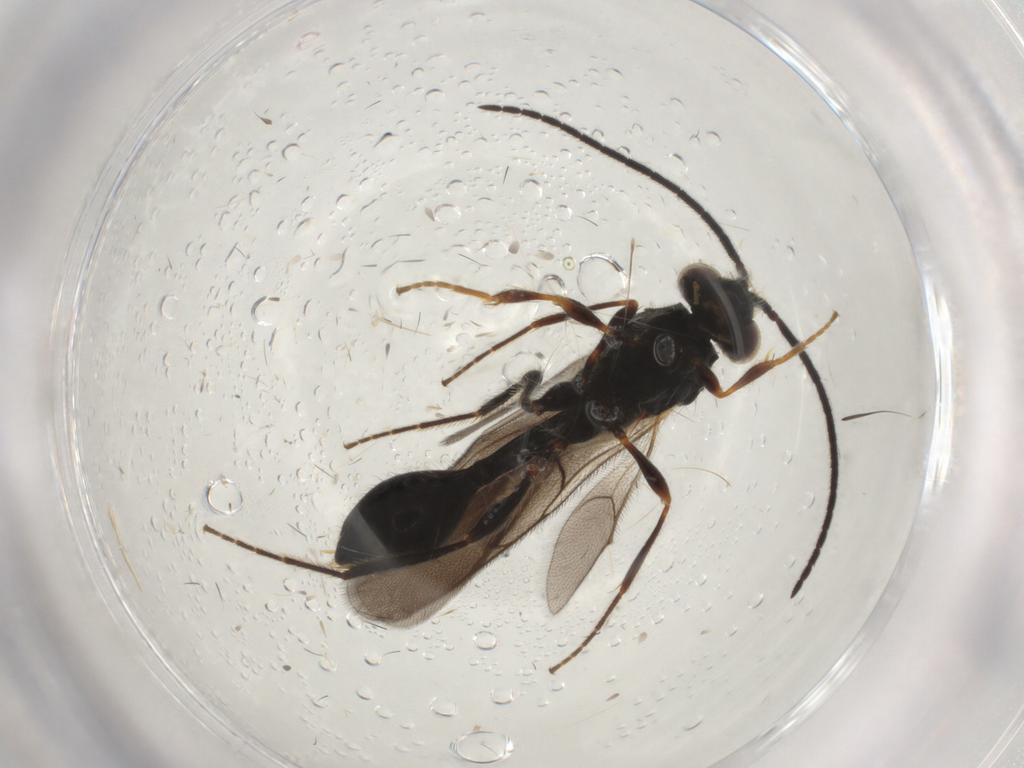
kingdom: Animalia
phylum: Arthropoda
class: Insecta
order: Hymenoptera
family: Diapriidae
